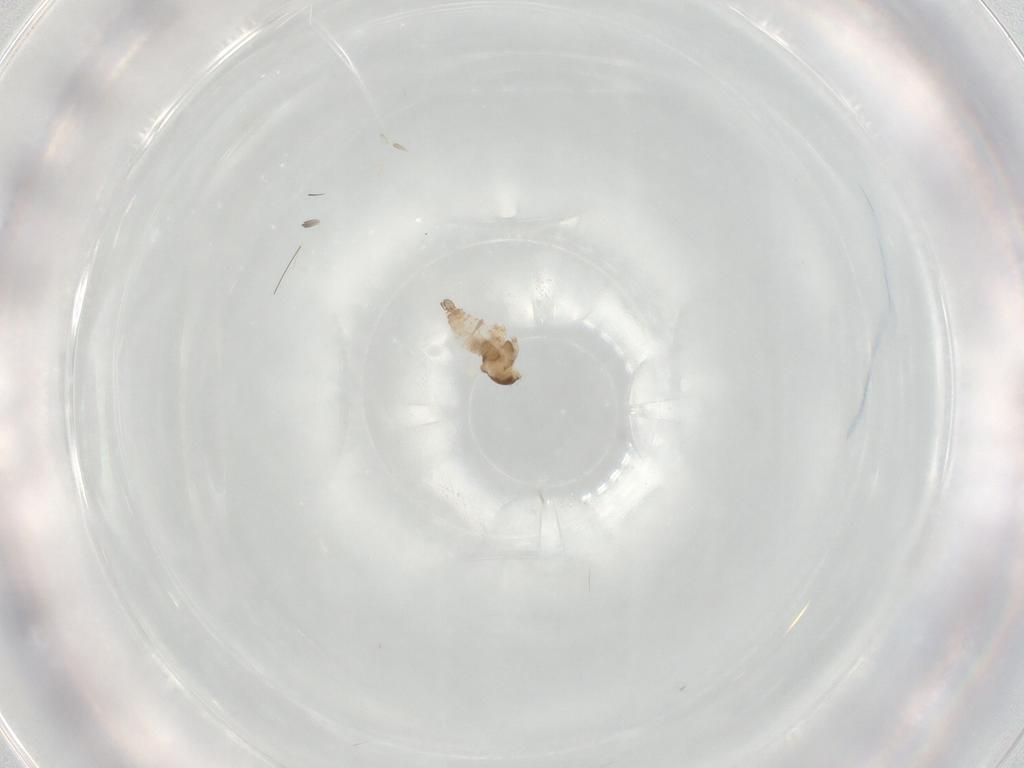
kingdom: Animalia
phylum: Arthropoda
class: Insecta
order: Diptera
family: Cecidomyiidae
